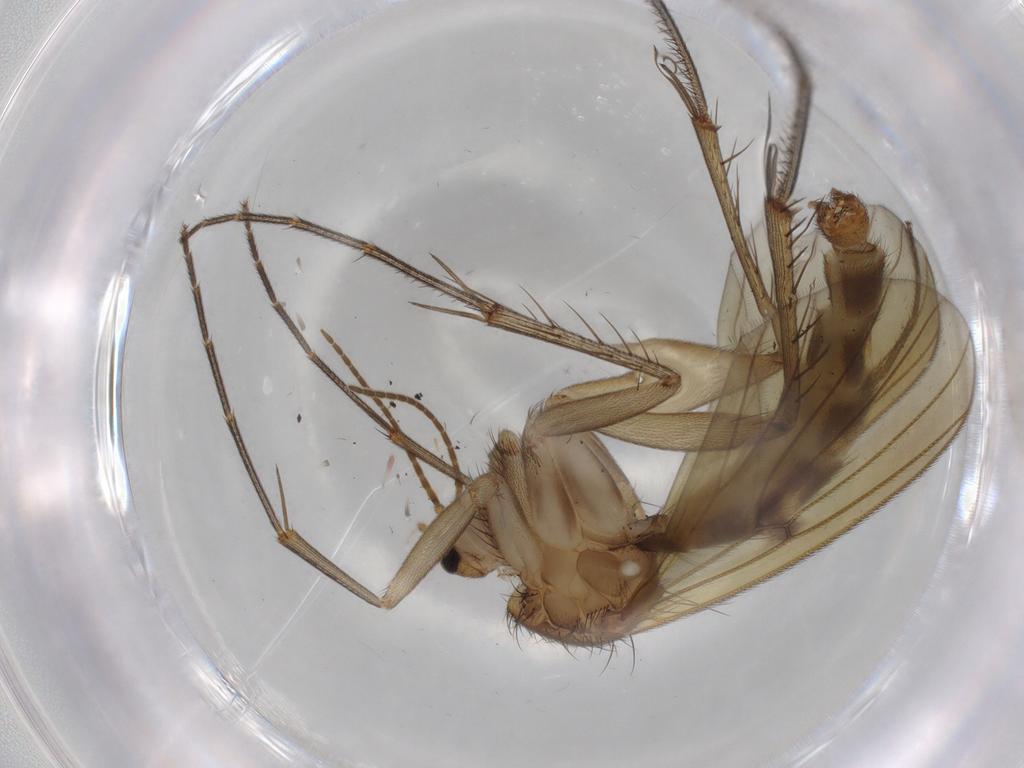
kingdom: Animalia
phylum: Arthropoda
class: Insecta
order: Diptera
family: Mycetophilidae
